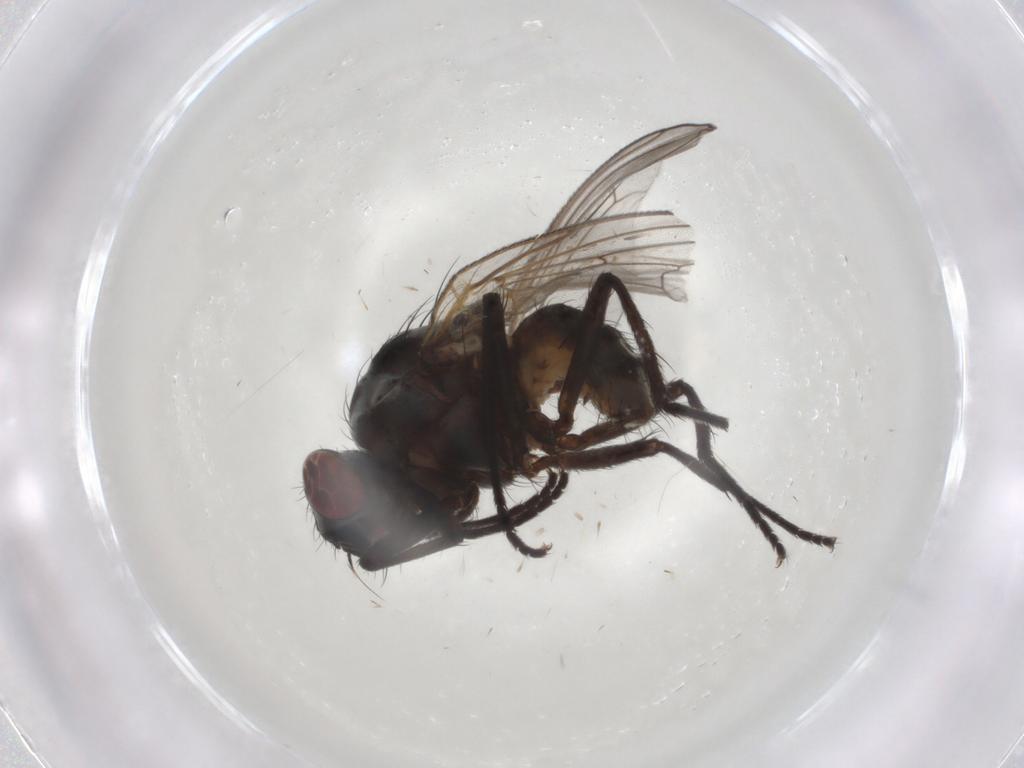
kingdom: Animalia
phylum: Arthropoda
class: Insecta
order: Diptera
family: Anthomyiidae
